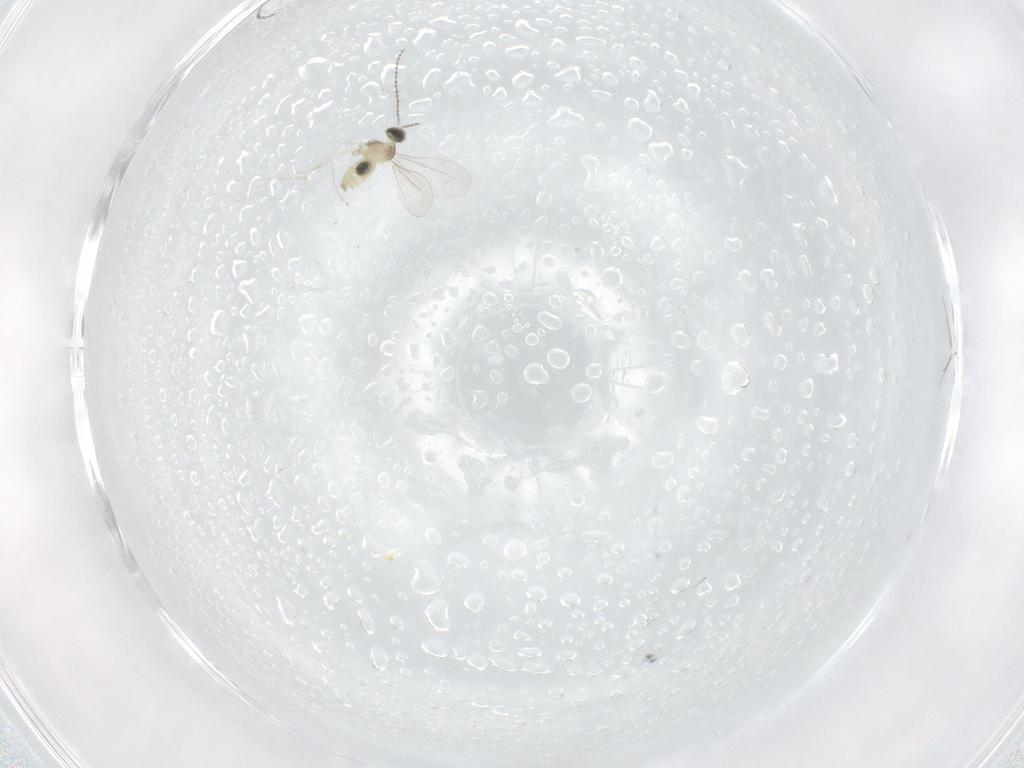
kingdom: Animalia
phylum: Arthropoda
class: Insecta
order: Diptera
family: Cecidomyiidae
